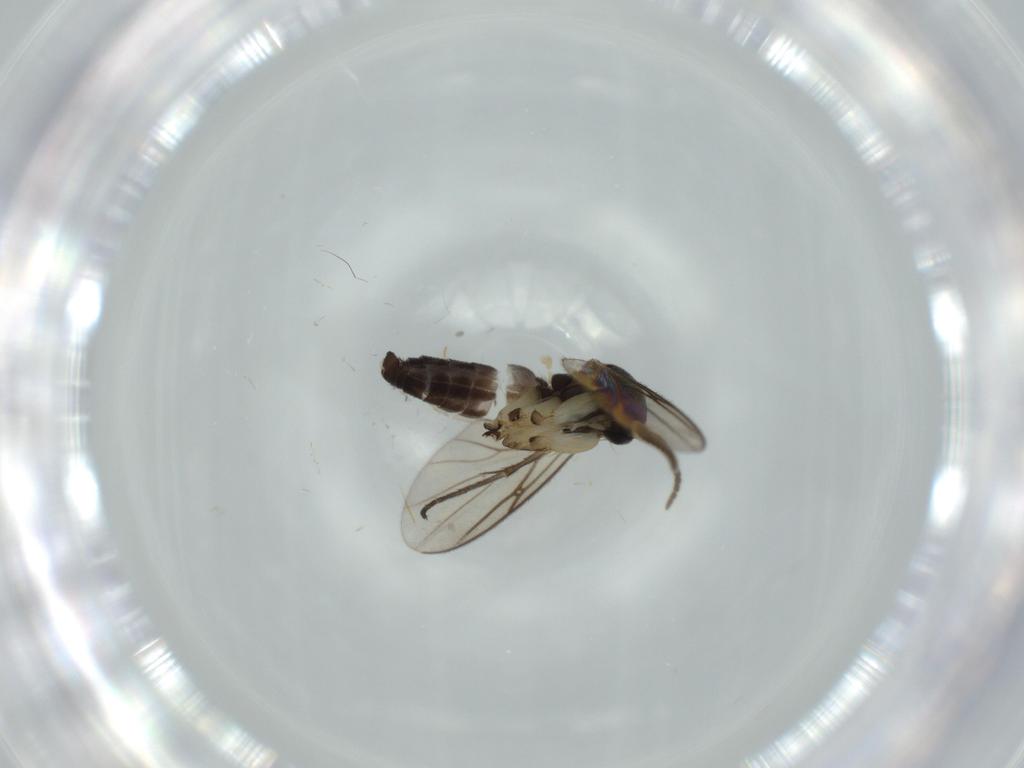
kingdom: Animalia
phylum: Arthropoda
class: Insecta
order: Diptera
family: Mycetophilidae
